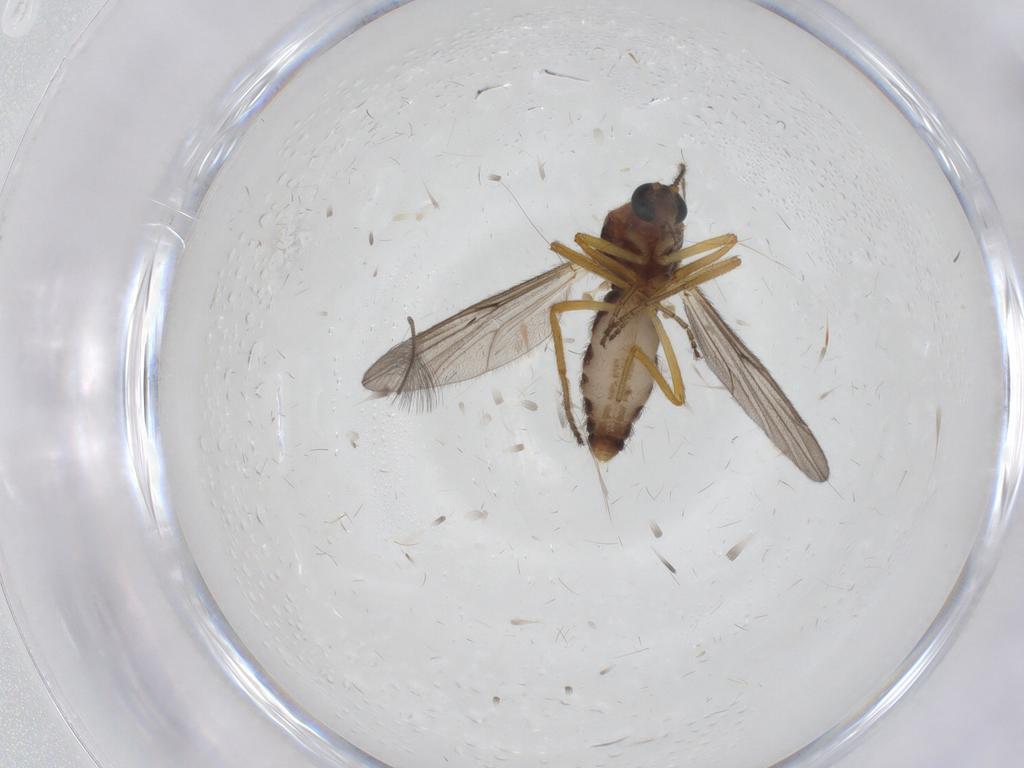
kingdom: Animalia
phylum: Arthropoda
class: Insecta
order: Diptera
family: Ceratopogonidae
